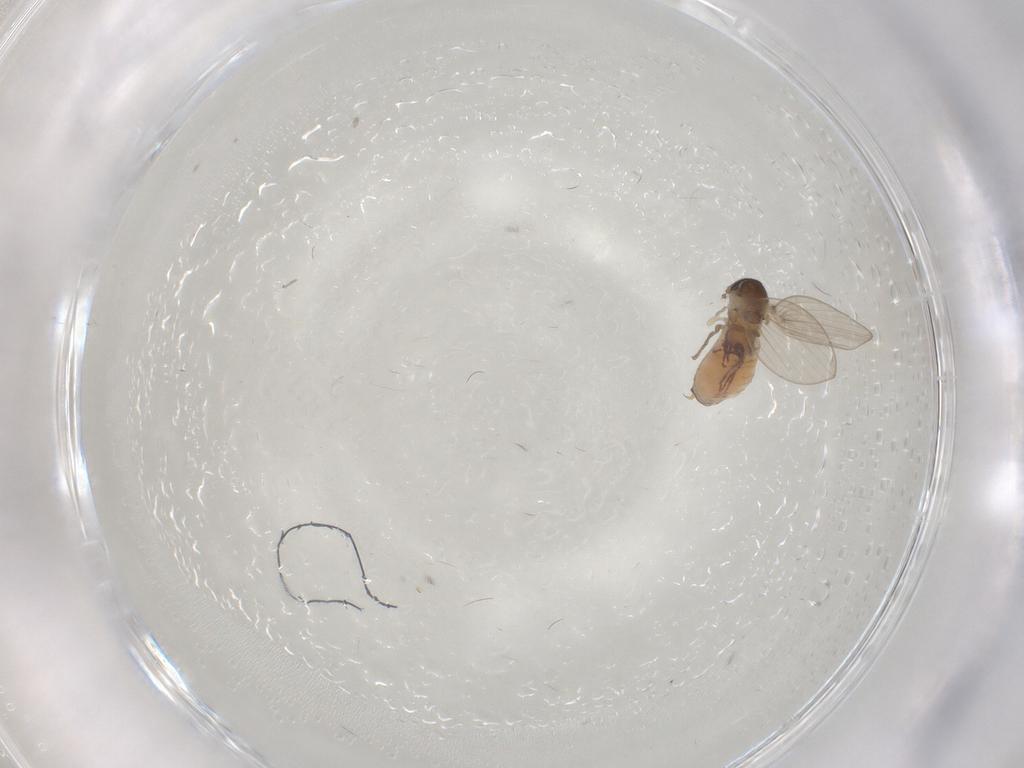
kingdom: Animalia
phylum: Arthropoda
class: Insecta
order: Diptera
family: Psychodidae
